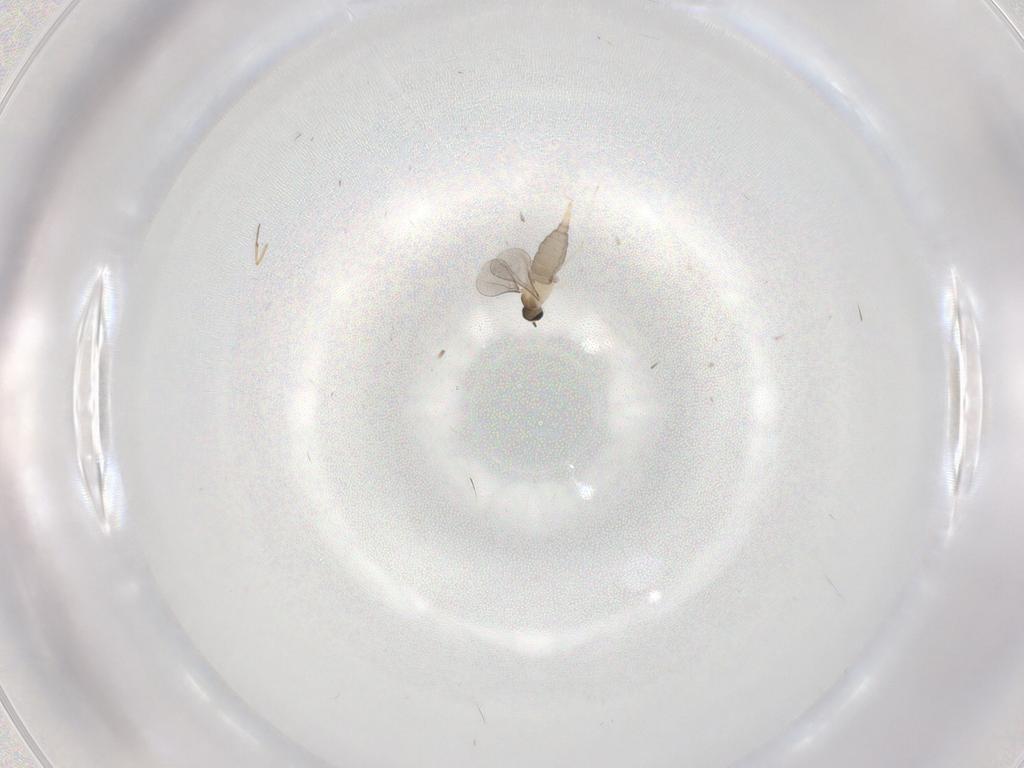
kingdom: Animalia
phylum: Arthropoda
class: Insecta
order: Diptera
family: Cecidomyiidae
